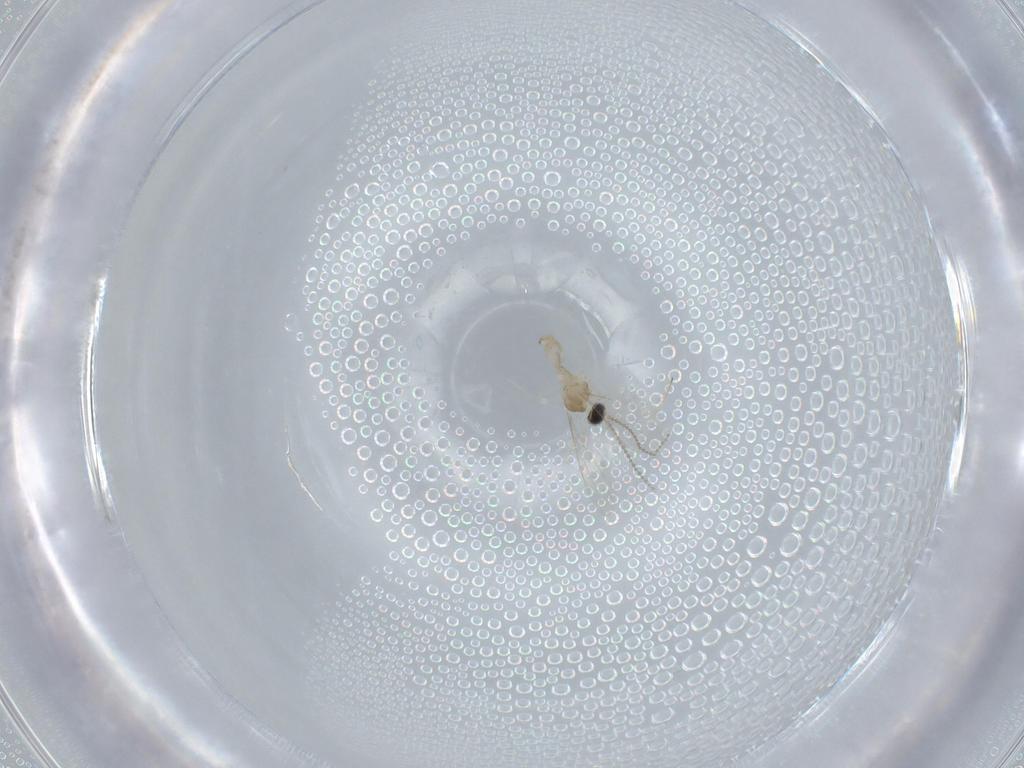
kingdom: Animalia
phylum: Arthropoda
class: Insecta
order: Diptera
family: Cecidomyiidae
